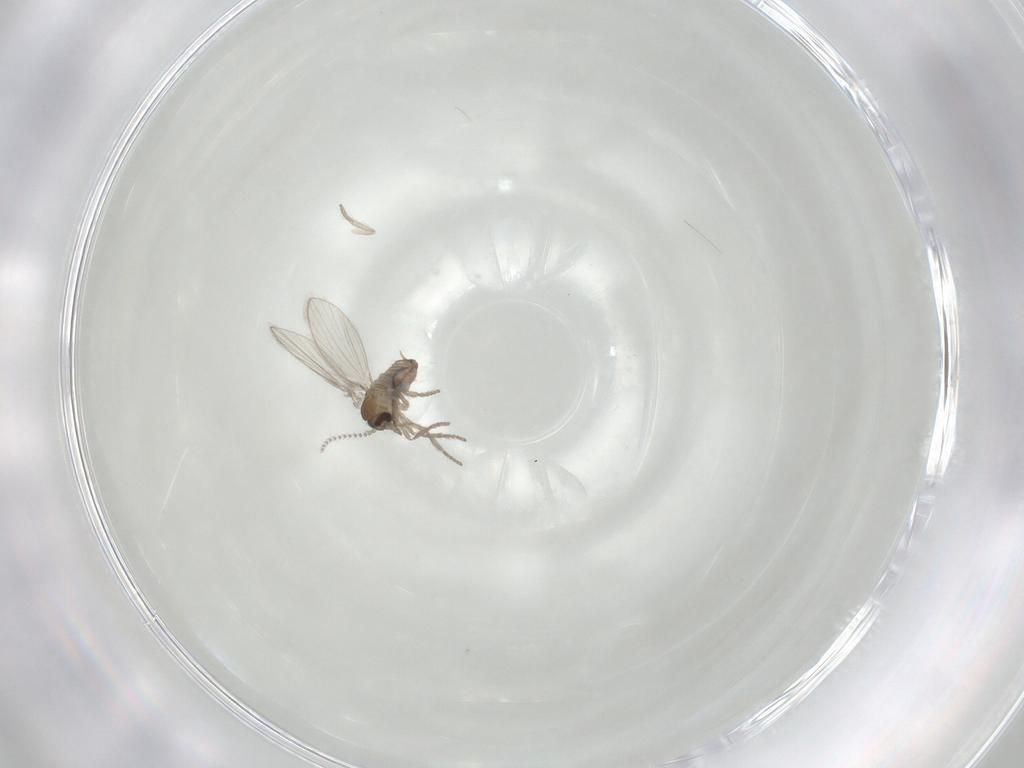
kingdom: Animalia
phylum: Arthropoda
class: Insecta
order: Diptera
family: Psychodidae
